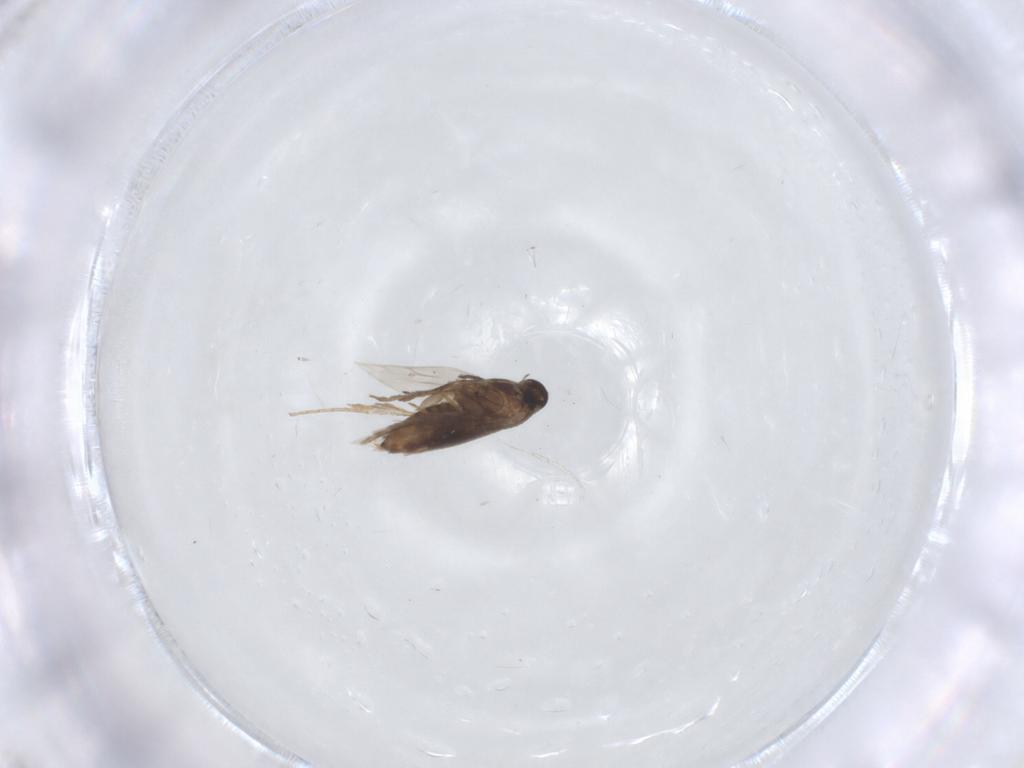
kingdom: Animalia
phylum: Arthropoda
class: Insecta
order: Lepidoptera
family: Heliozelidae
